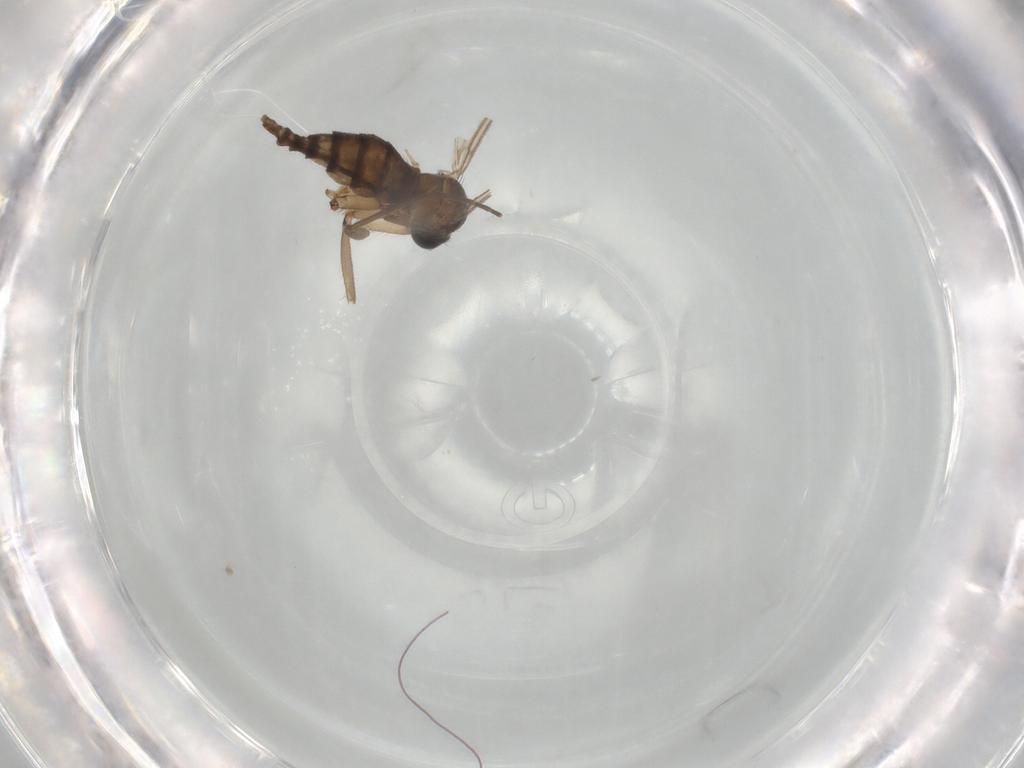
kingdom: Animalia
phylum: Arthropoda
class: Insecta
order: Diptera
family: Sciaridae
